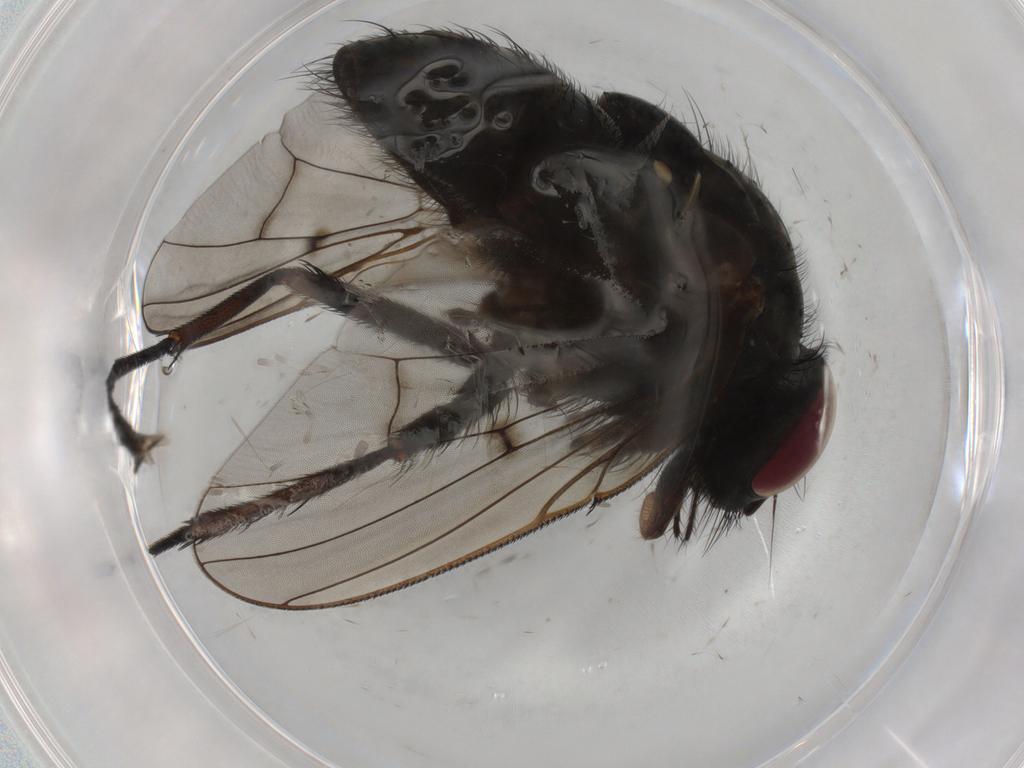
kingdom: Animalia
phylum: Arthropoda
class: Insecta
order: Diptera
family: Muscidae
